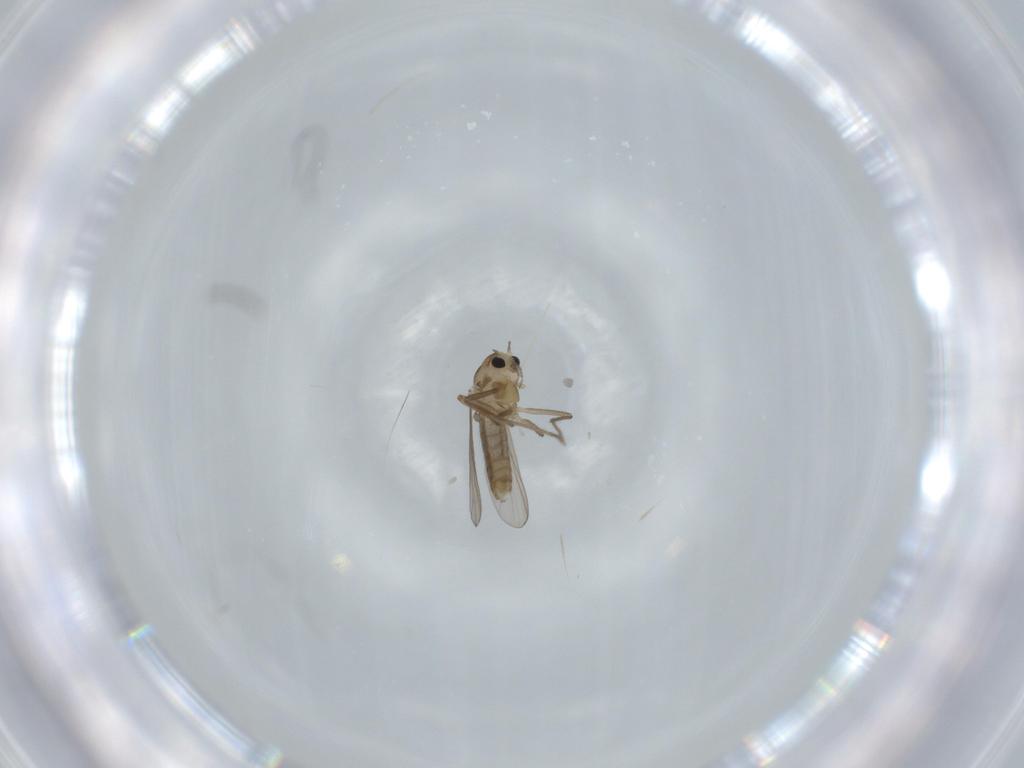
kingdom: Animalia
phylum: Arthropoda
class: Insecta
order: Diptera
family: Chironomidae
